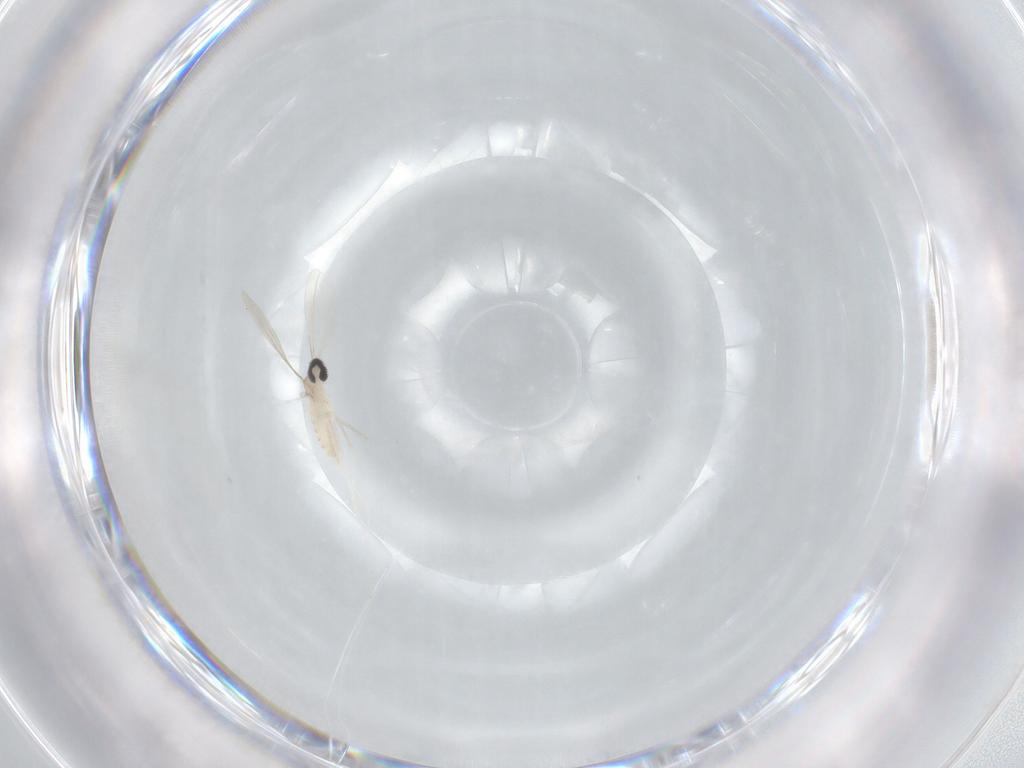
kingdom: Animalia
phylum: Arthropoda
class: Insecta
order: Diptera
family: Cecidomyiidae
